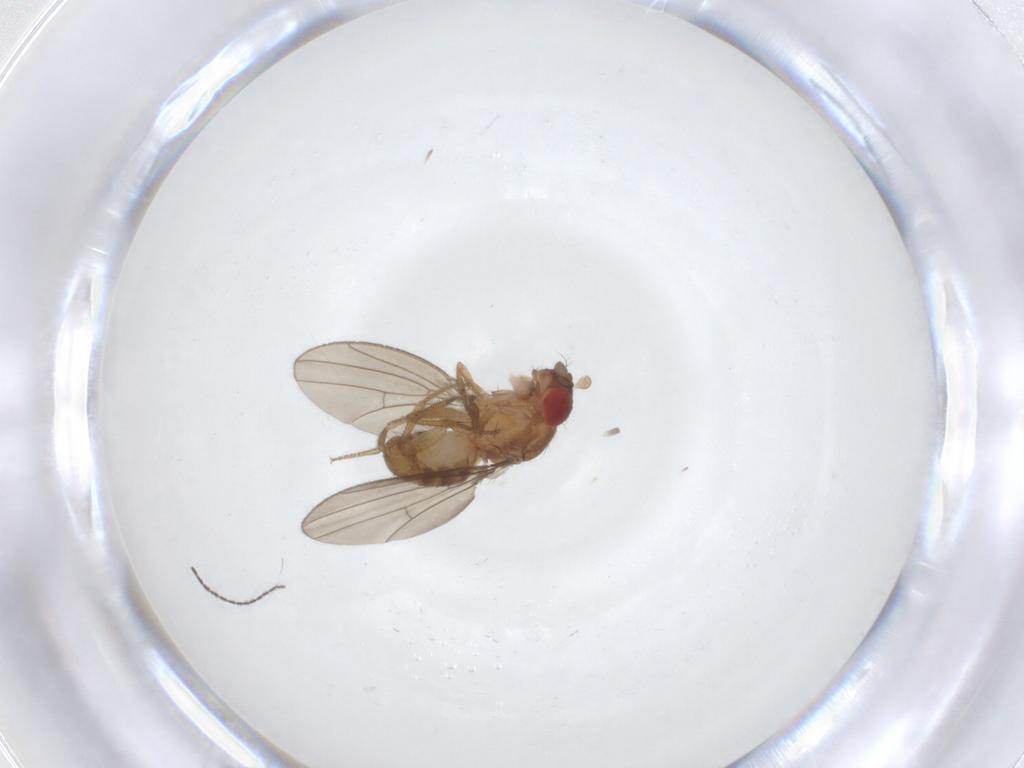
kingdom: Animalia
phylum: Arthropoda
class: Insecta
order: Diptera
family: Drosophilidae
